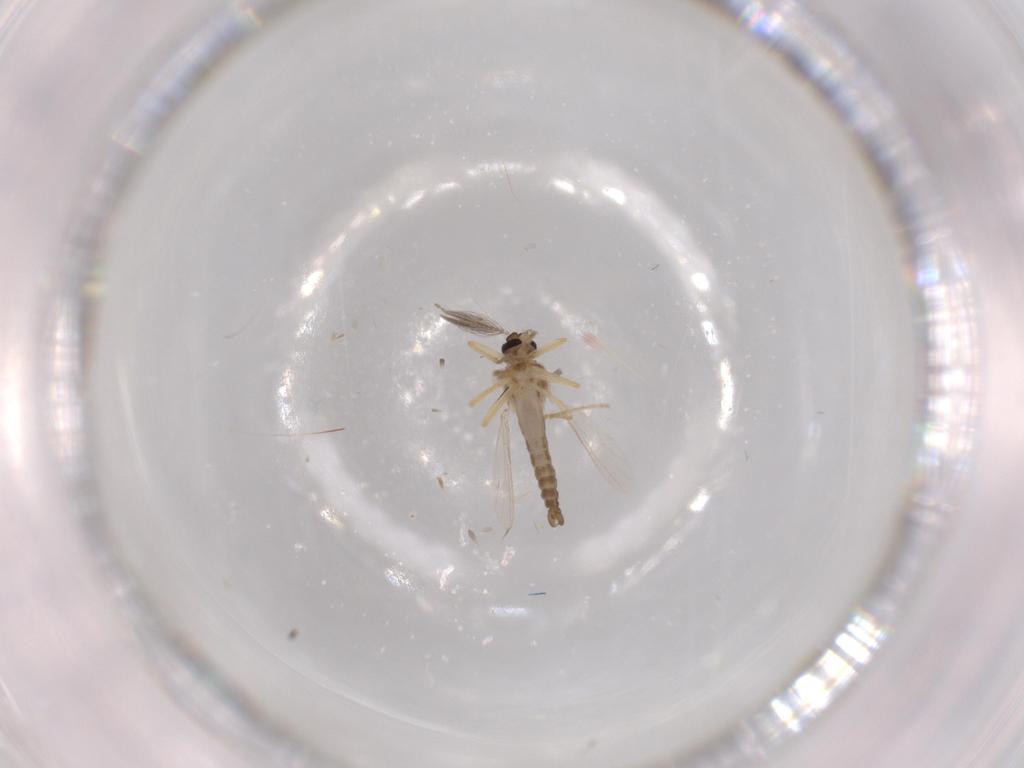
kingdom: Animalia
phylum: Arthropoda
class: Insecta
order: Diptera
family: Ceratopogonidae
